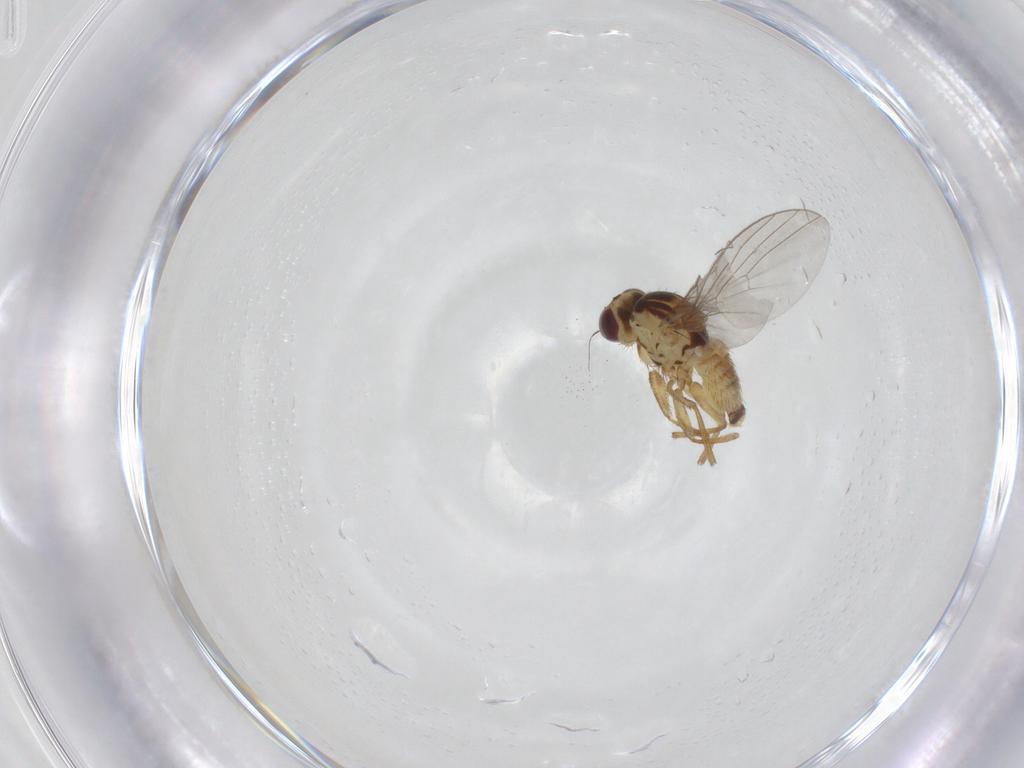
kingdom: Animalia
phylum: Arthropoda
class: Insecta
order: Diptera
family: Agromyzidae
